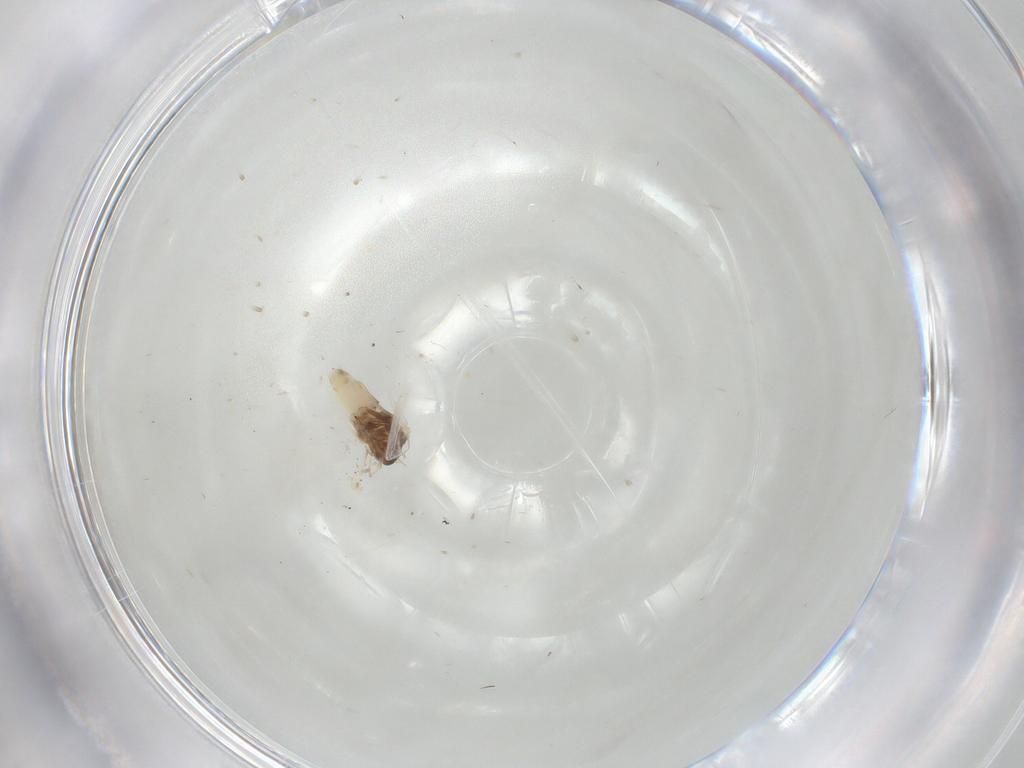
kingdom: Animalia
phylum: Arthropoda
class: Insecta
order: Hemiptera
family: Aleyrodidae
